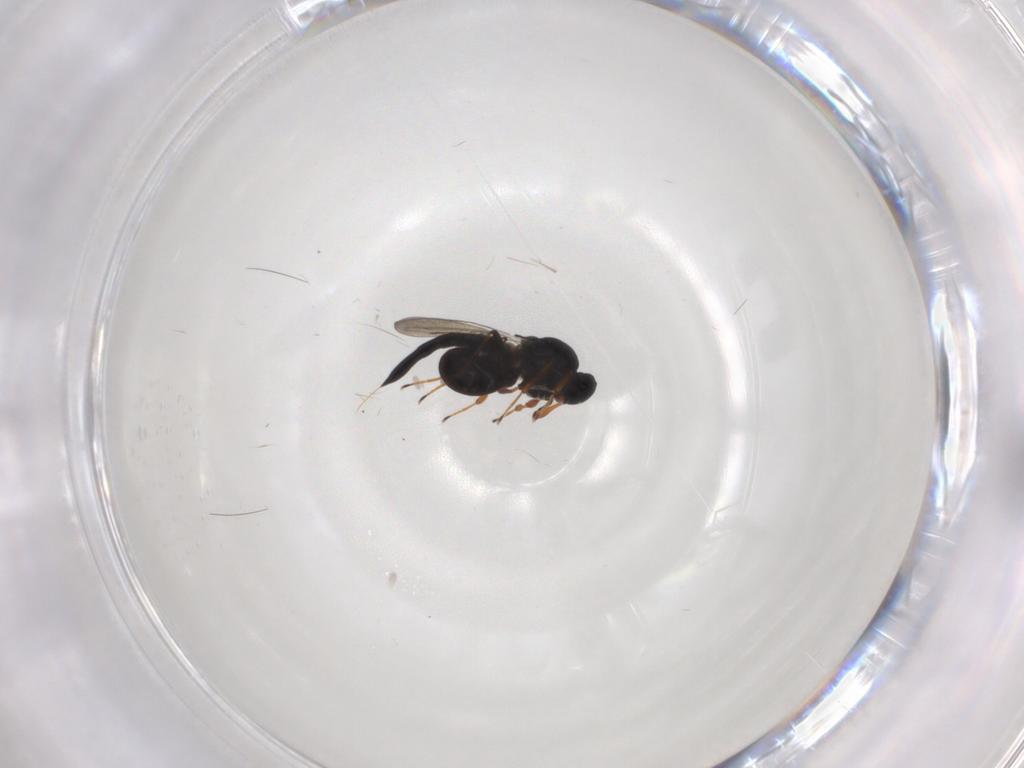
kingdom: Animalia
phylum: Arthropoda
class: Insecta
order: Hymenoptera
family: Platygastridae
